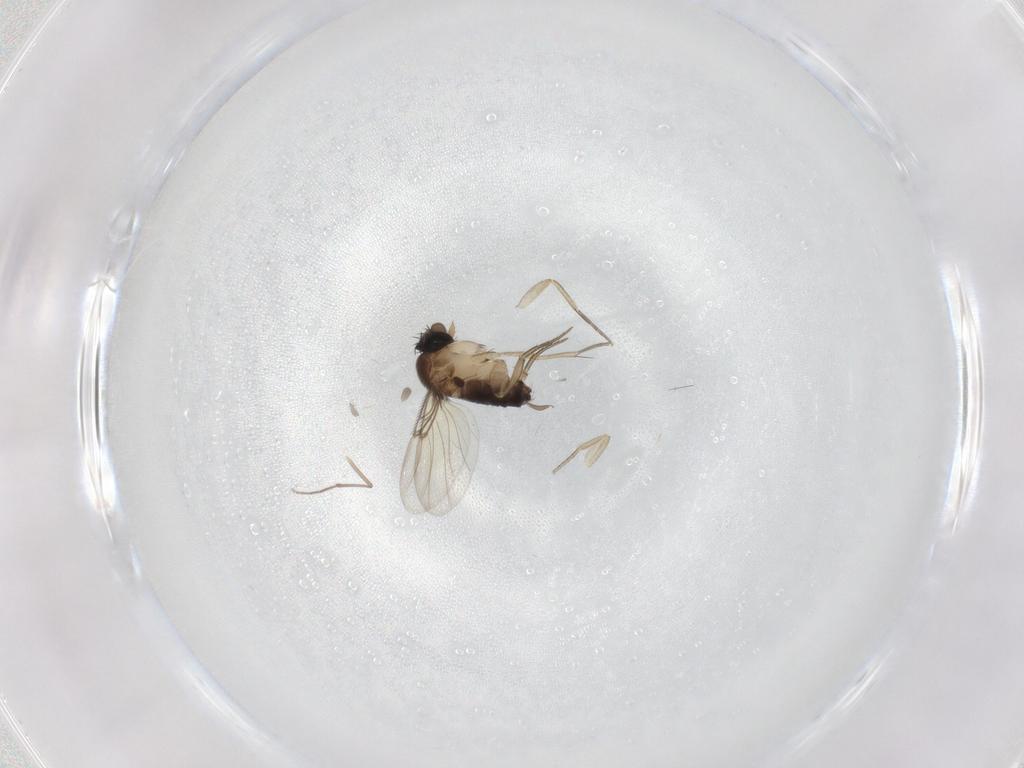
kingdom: Animalia
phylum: Arthropoda
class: Insecta
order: Diptera
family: Chironomidae
